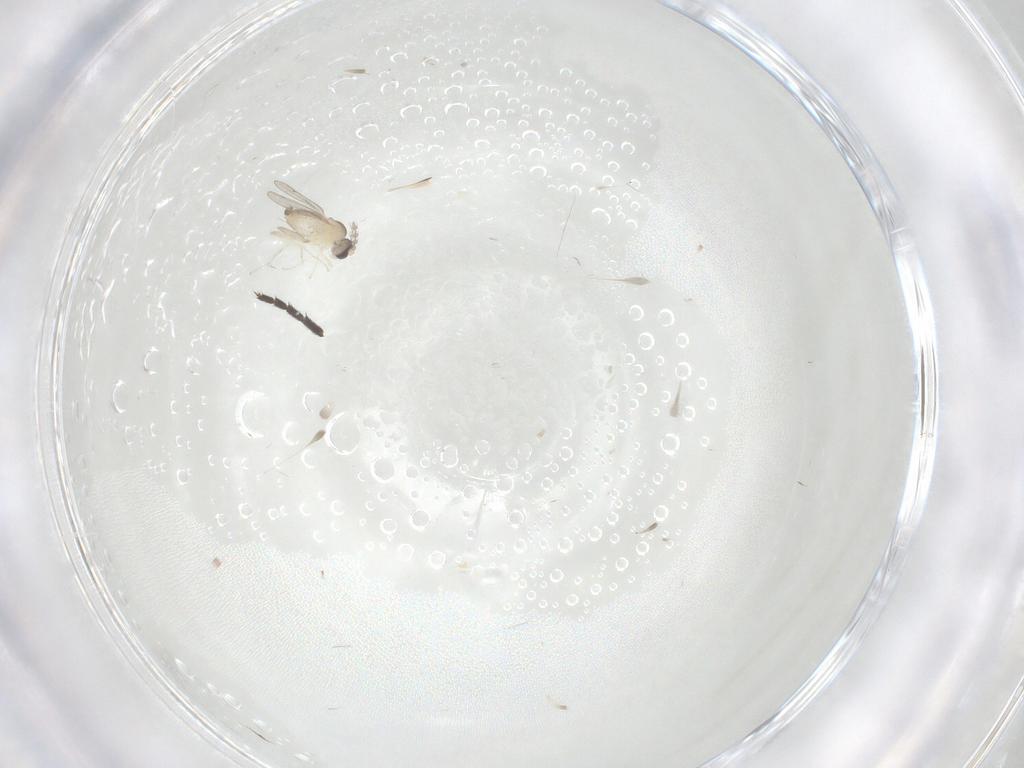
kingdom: Animalia
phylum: Arthropoda
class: Insecta
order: Diptera
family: Cecidomyiidae
